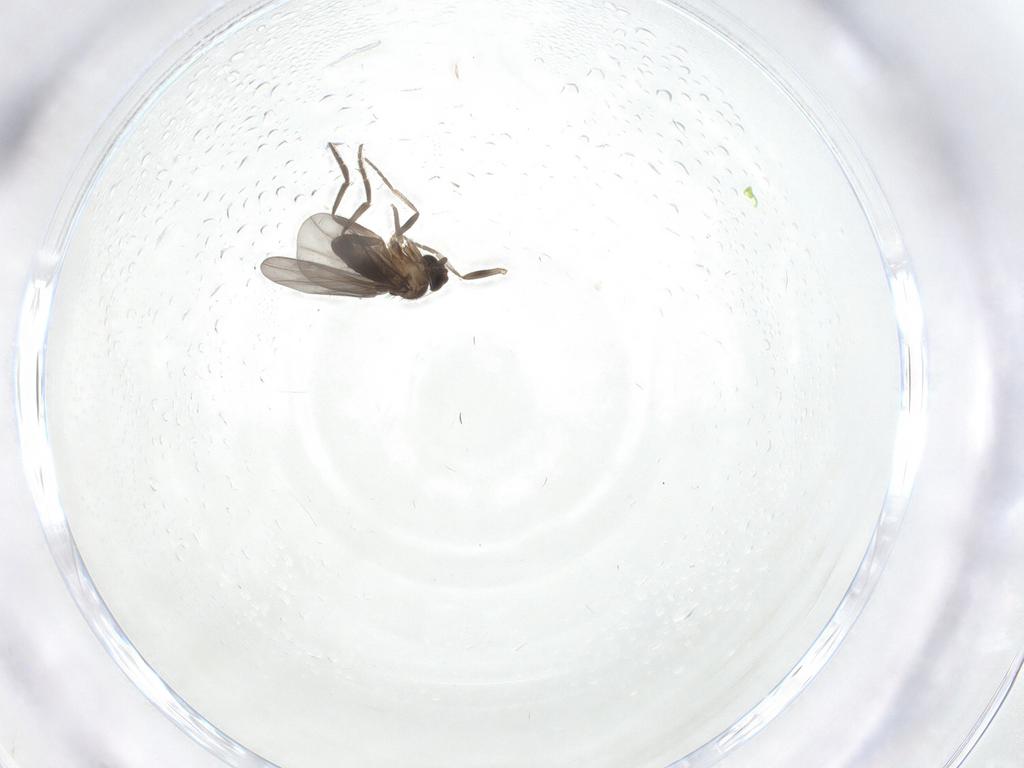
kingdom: Animalia
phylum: Arthropoda
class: Insecta
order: Diptera
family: Phoridae
